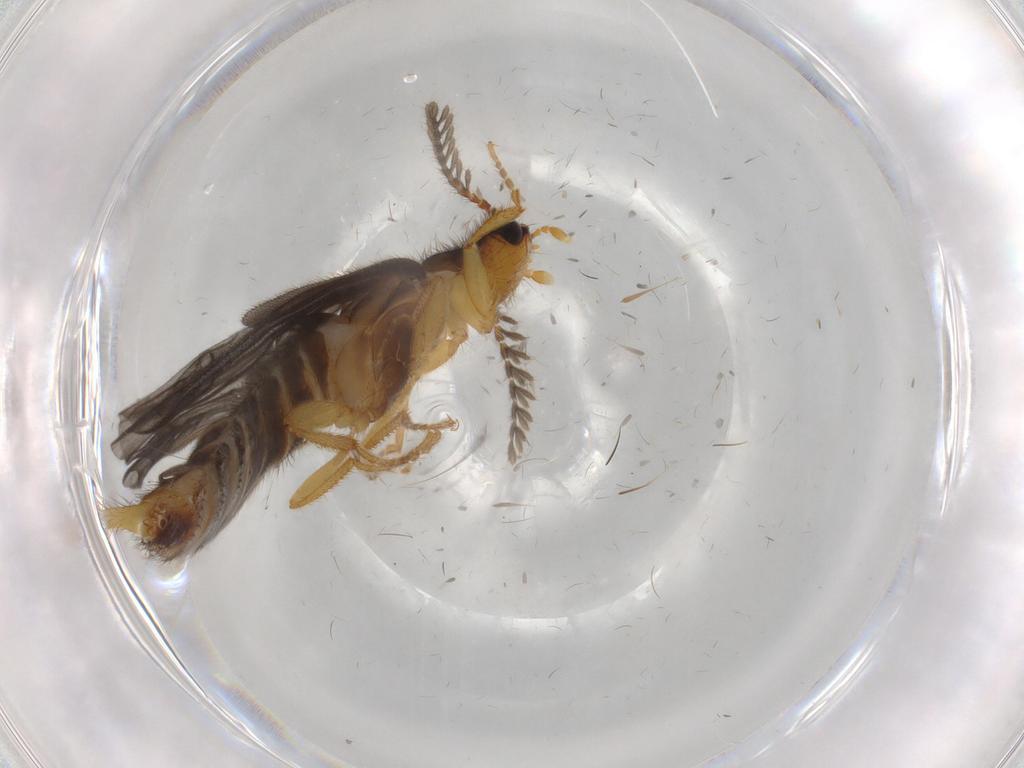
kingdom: Animalia
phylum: Arthropoda
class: Insecta
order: Coleoptera
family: Chrysomelidae
